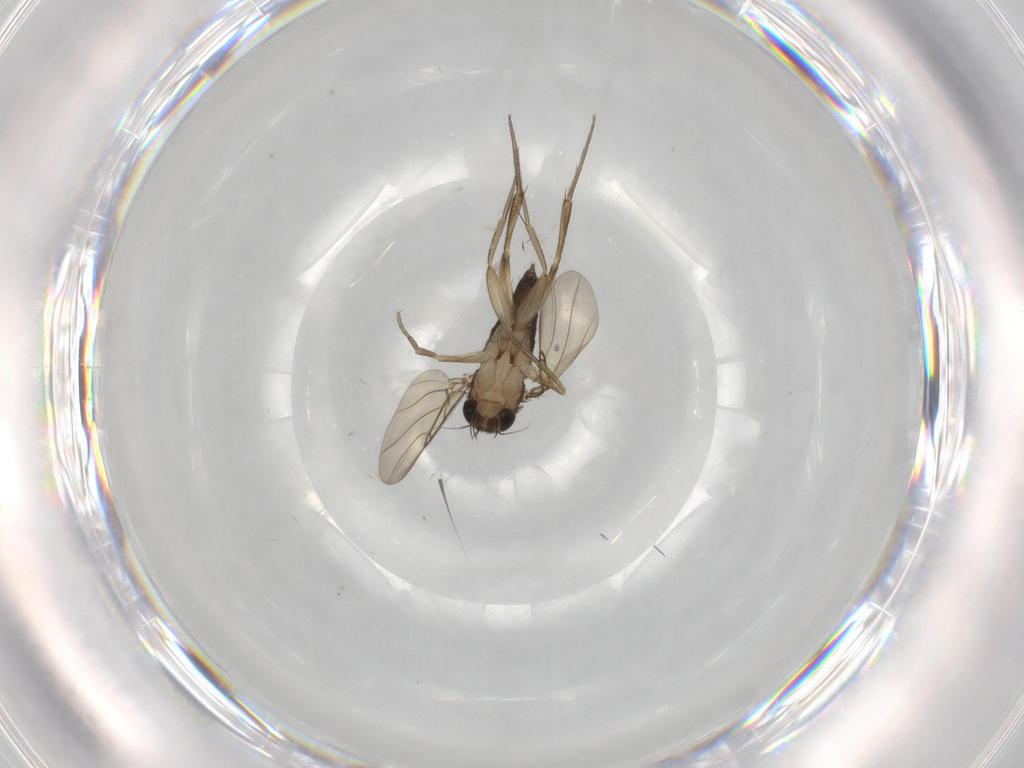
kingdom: Animalia
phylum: Arthropoda
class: Insecta
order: Diptera
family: Phoridae
